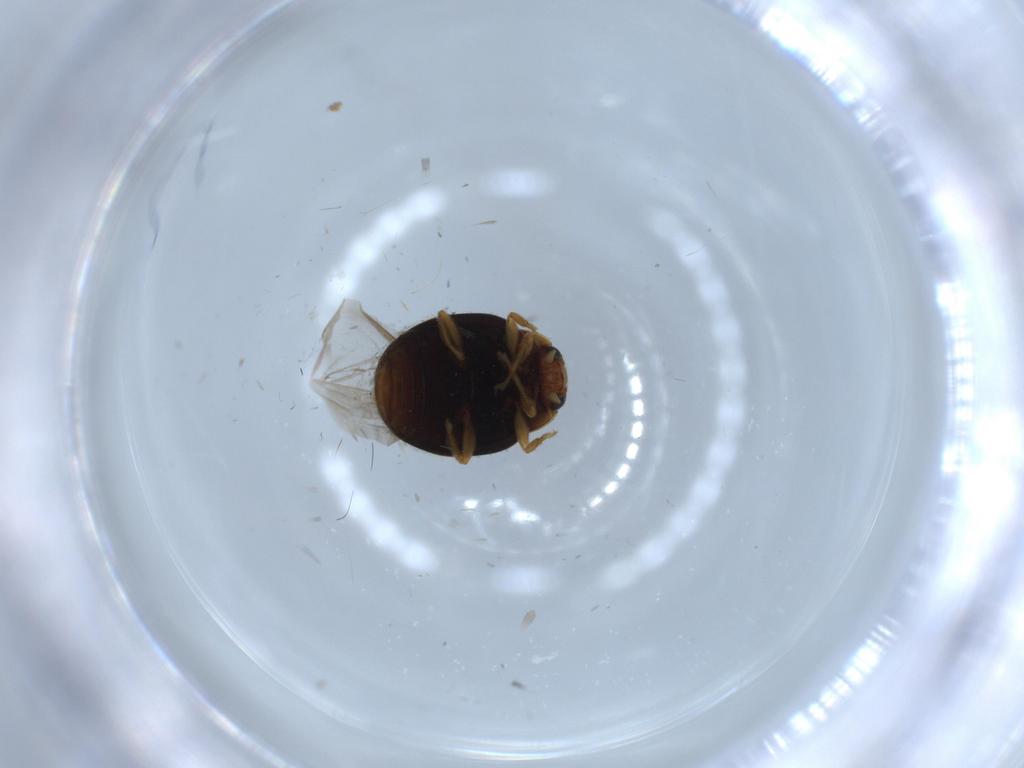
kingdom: Animalia
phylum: Arthropoda
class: Insecta
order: Coleoptera
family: Coccinellidae
